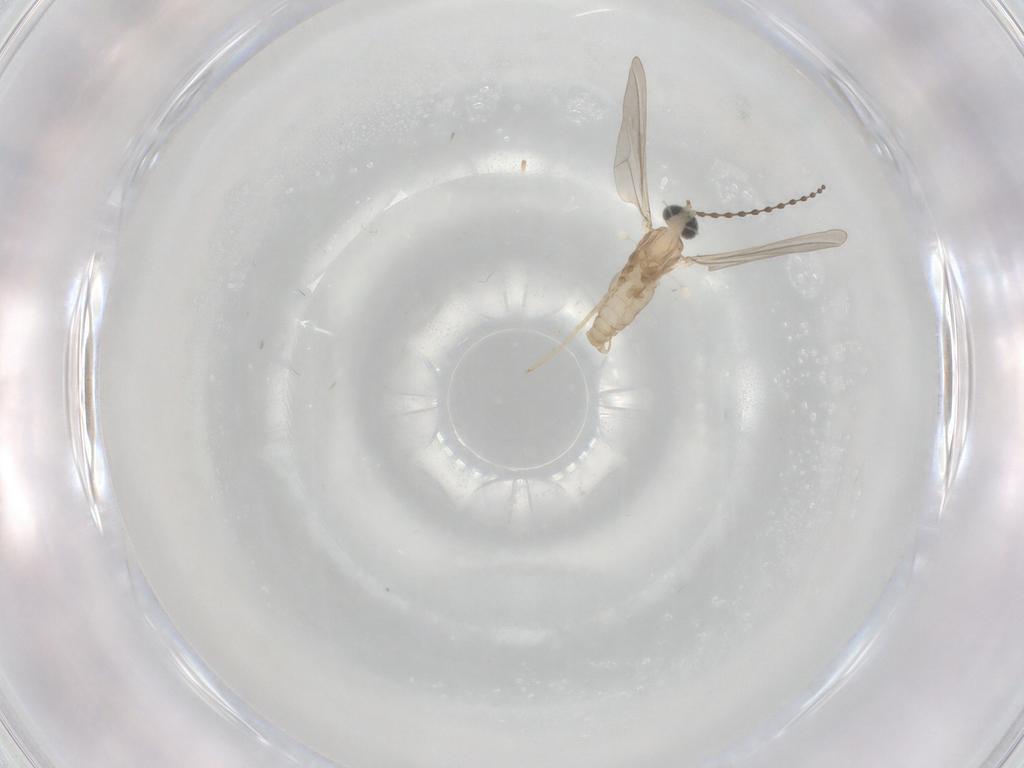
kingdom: Animalia
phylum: Arthropoda
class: Insecta
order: Diptera
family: Cecidomyiidae
